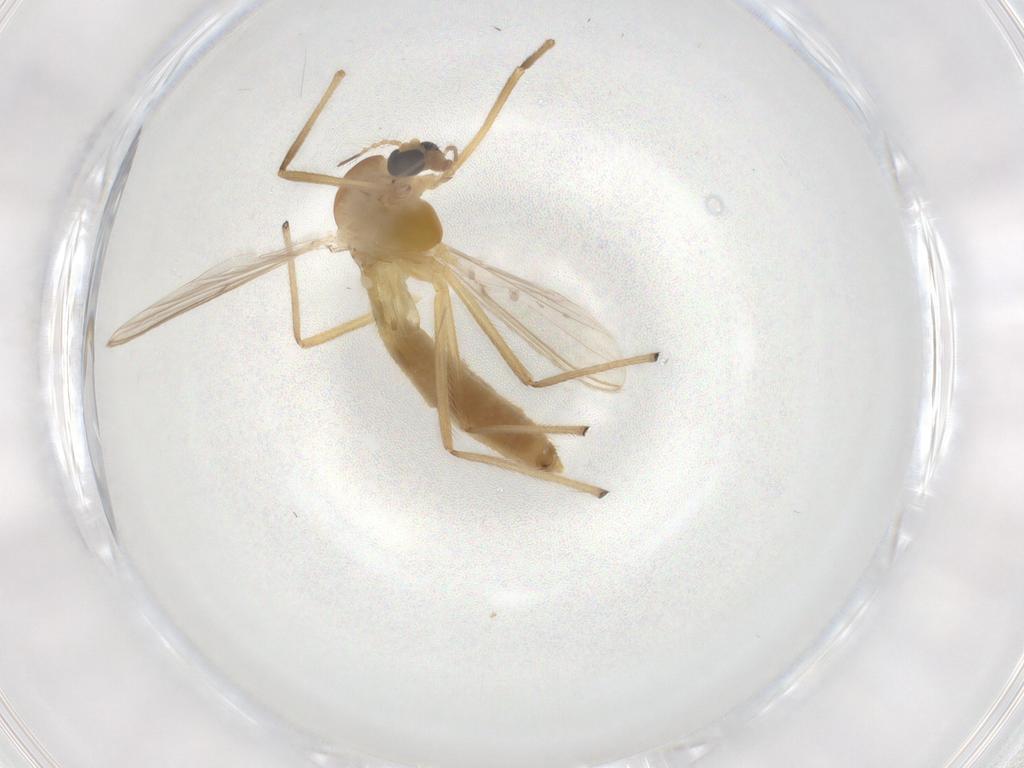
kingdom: Animalia
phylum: Arthropoda
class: Insecta
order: Diptera
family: Chironomidae
